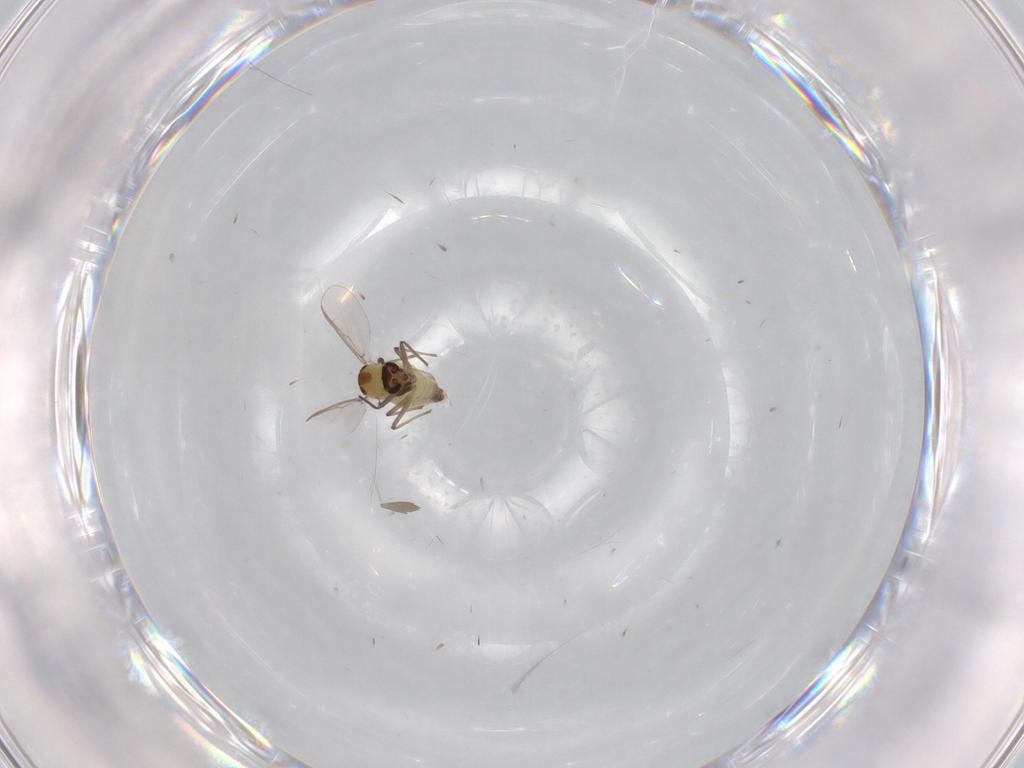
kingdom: Animalia
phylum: Arthropoda
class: Insecta
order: Diptera
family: Chironomidae
